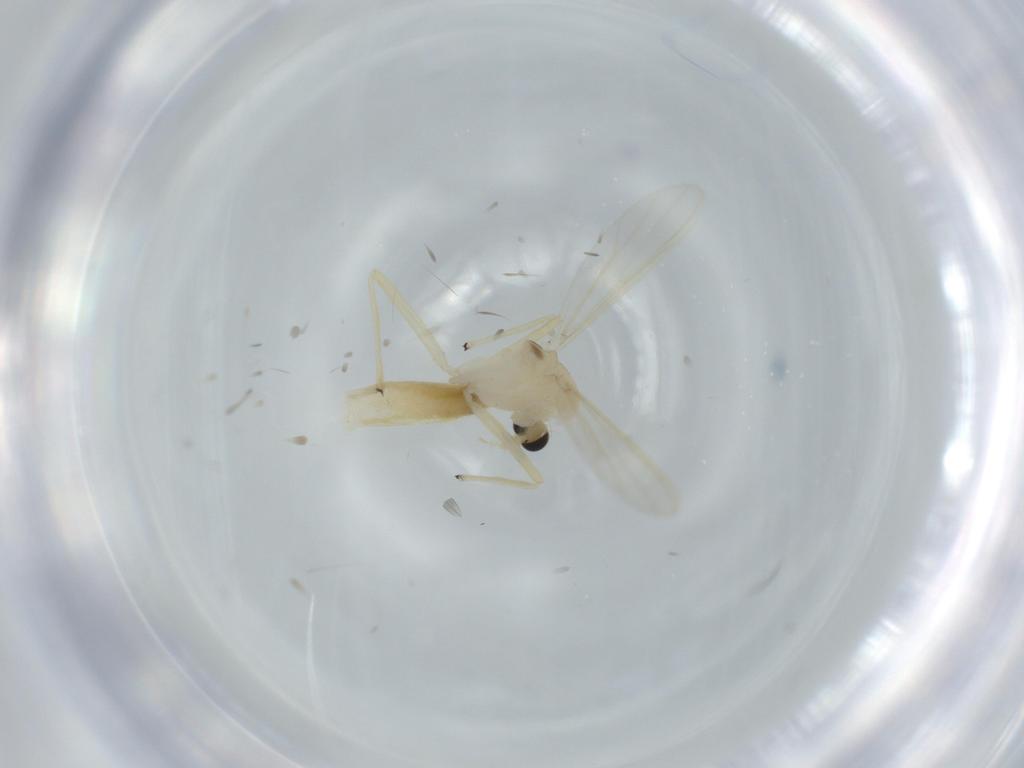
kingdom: Animalia
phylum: Arthropoda
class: Insecta
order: Diptera
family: Chironomidae
